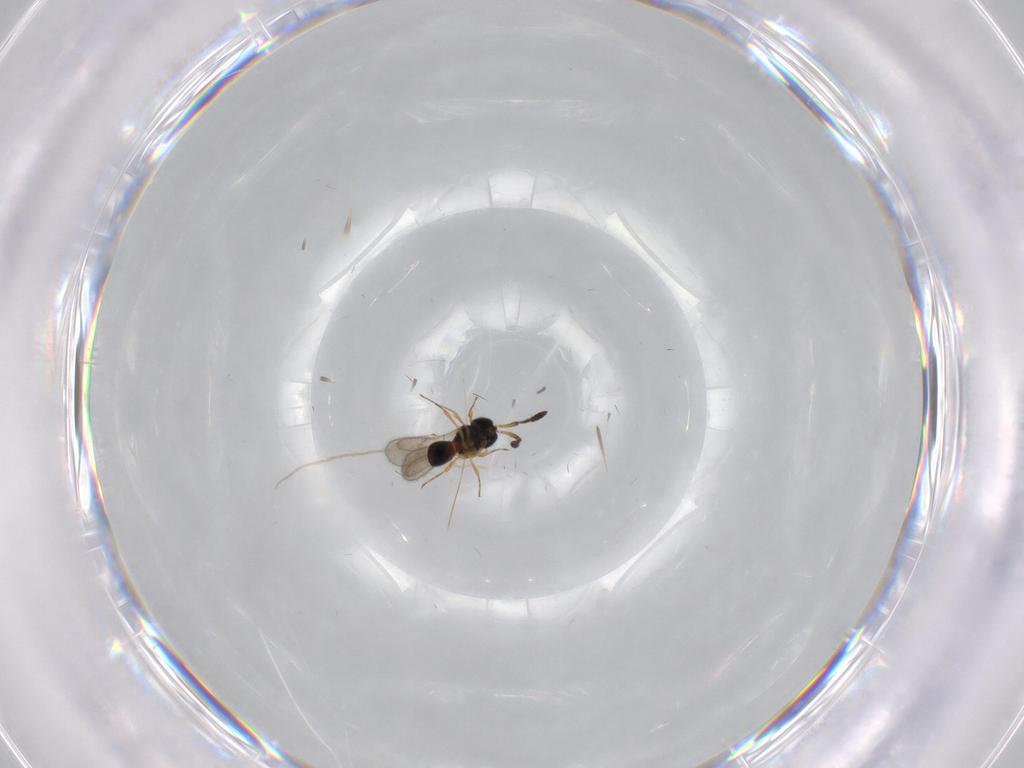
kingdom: Animalia
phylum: Arthropoda
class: Insecta
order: Hymenoptera
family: Scelionidae
